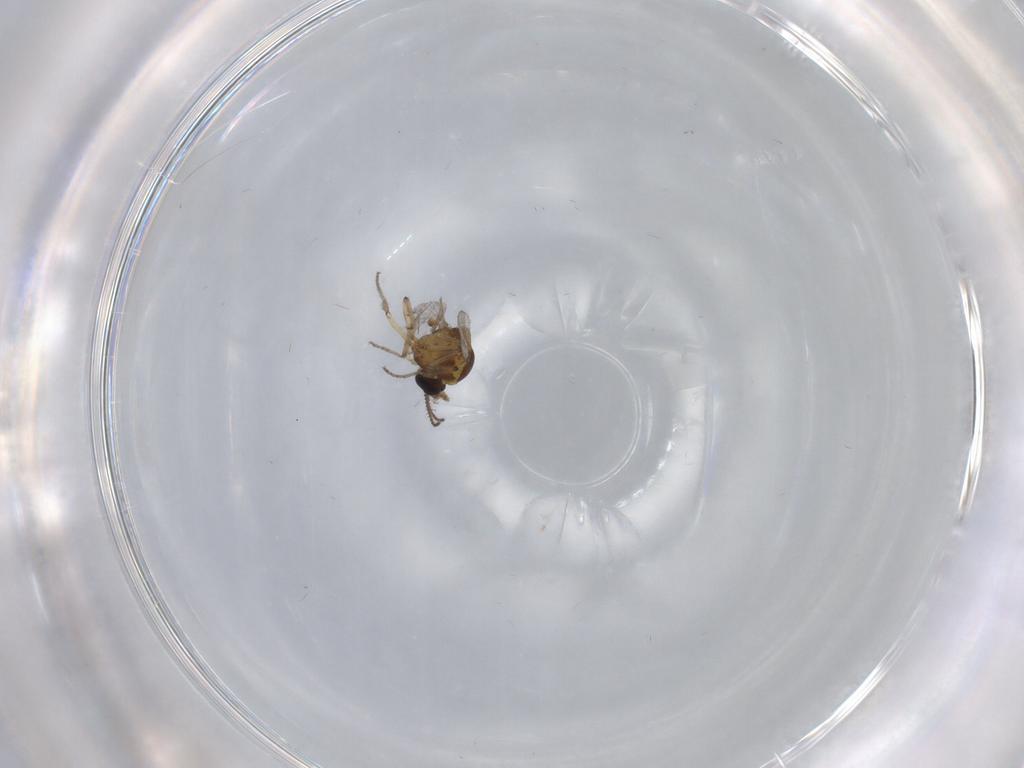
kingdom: Animalia
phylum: Arthropoda
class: Insecta
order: Diptera
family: Ceratopogonidae
